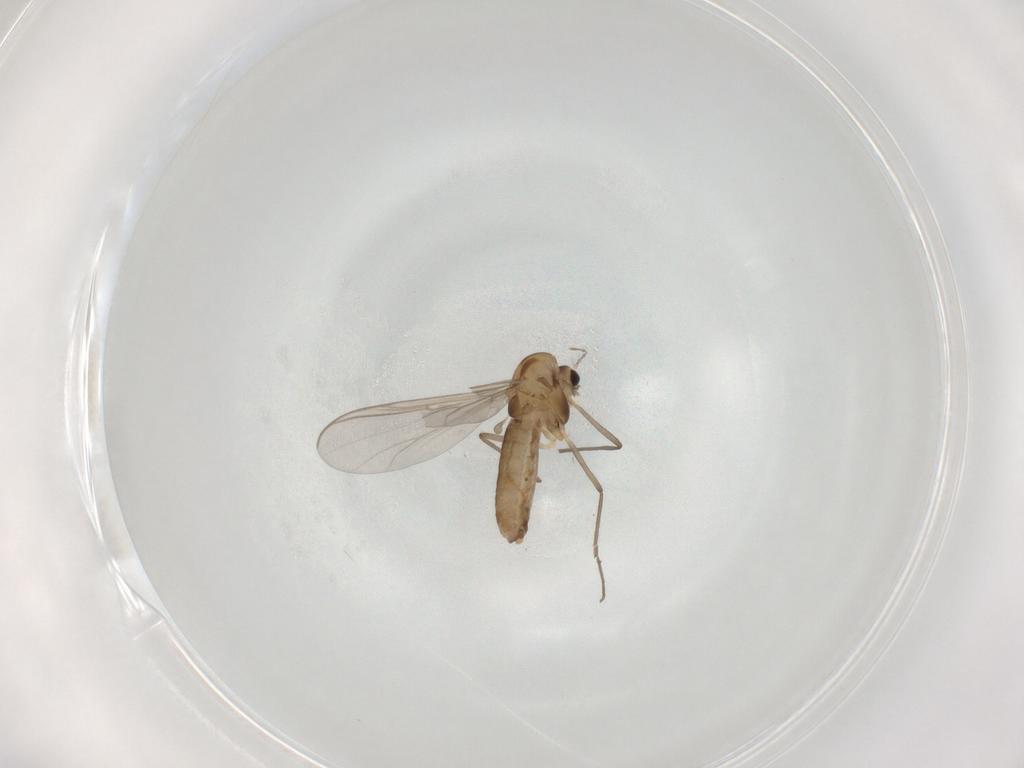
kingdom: Animalia
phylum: Arthropoda
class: Insecta
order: Diptera
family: Chironomidae
